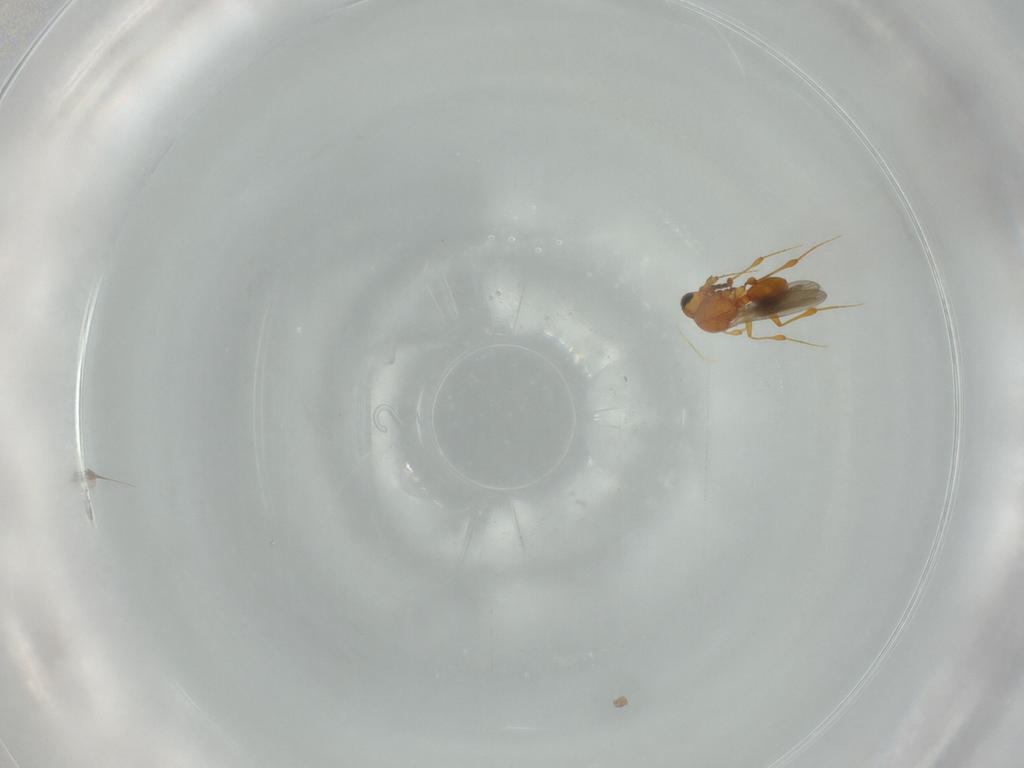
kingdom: Animalia
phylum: Arthropoda
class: Insecta
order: Hymenoptera
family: Platygastridae
